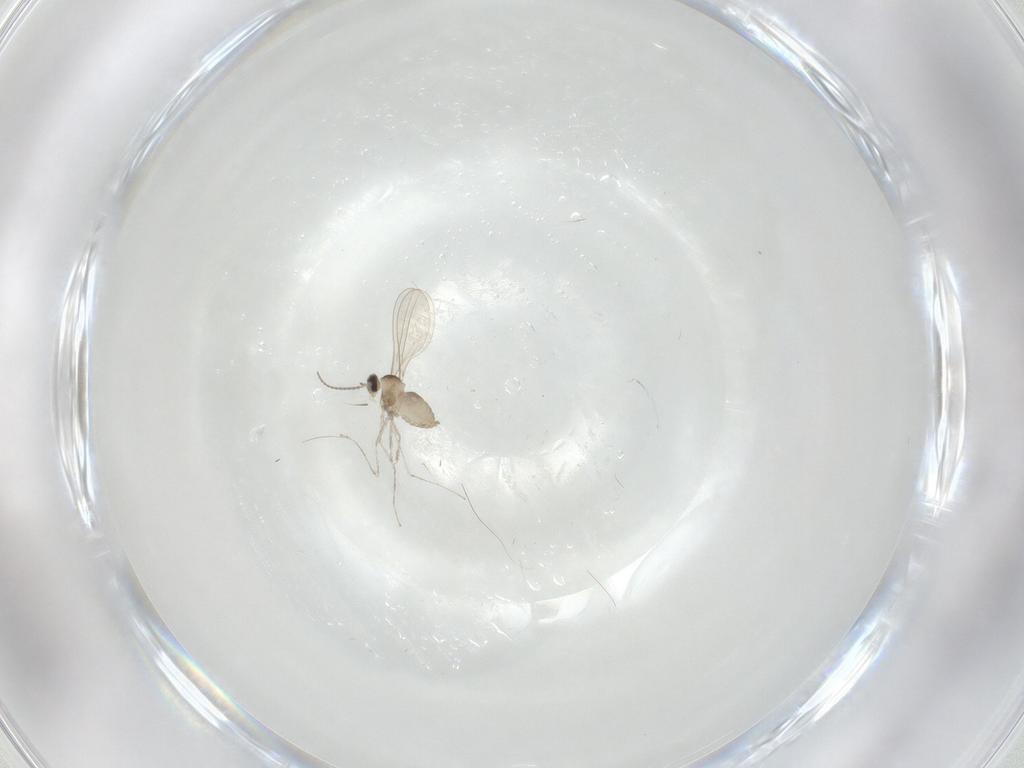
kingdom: Animalia
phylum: Arthropoda
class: Insecta
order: Diptera
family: Cecidomyiidae
